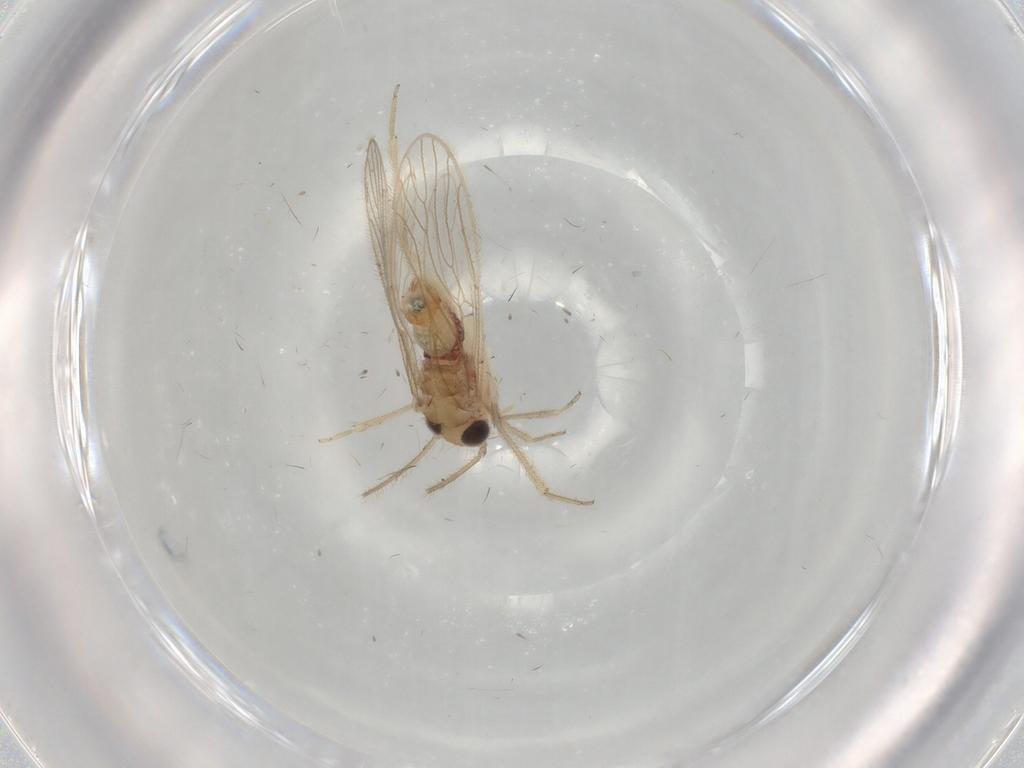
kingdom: Animalia
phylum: Arthropoda
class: Insecta
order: Psocodea
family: Cladiopsocidae
